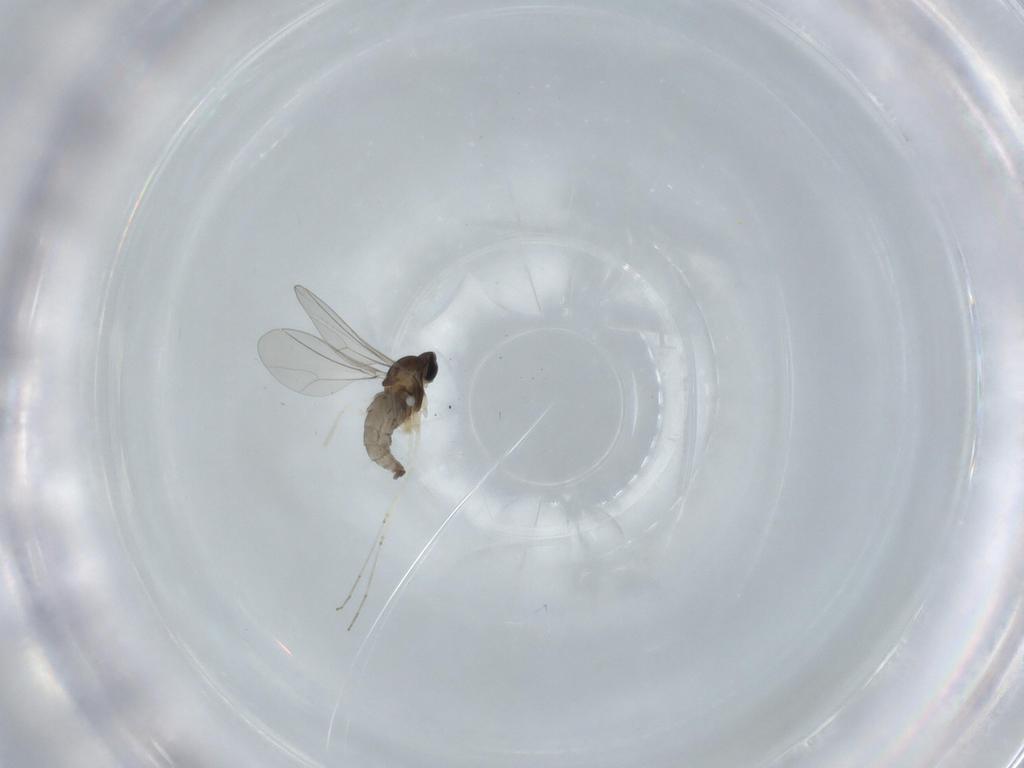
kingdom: Animalia
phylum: Arthropoda
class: Insecta
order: Diptera
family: Cecidomyiidae
